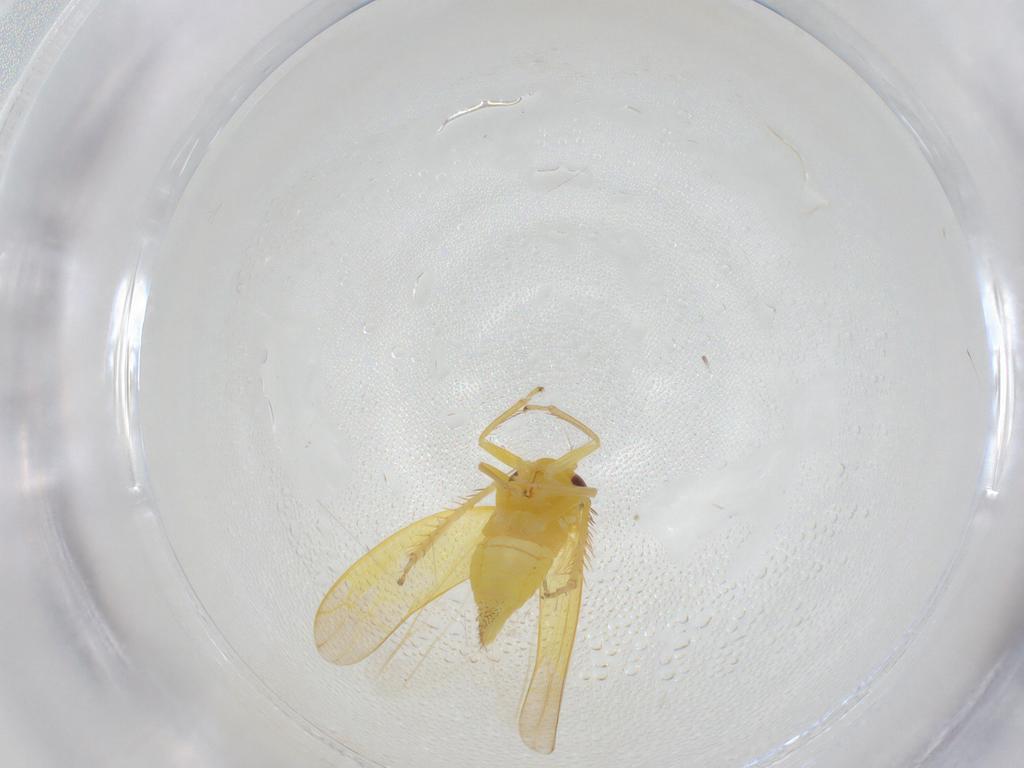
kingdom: Animalia
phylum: Arthropoda
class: Insecta
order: Hemiptera
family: Cicadellidae
